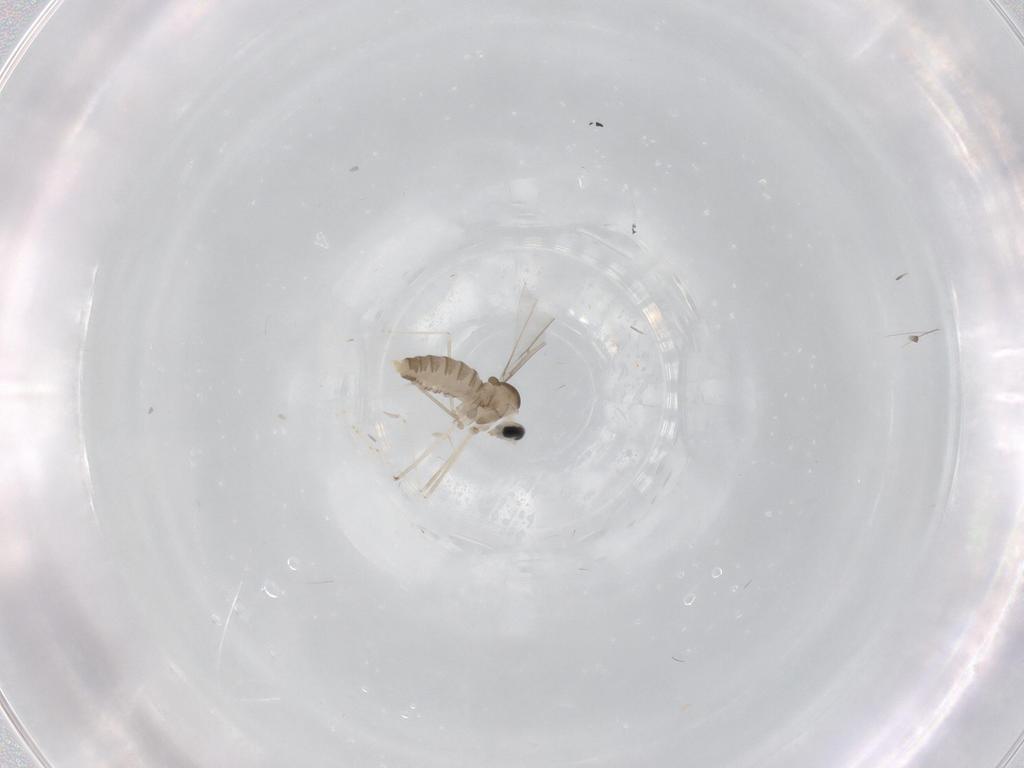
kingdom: Animalia
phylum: Arthropoda
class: Insecta
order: Diptera
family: Cecidomyiidae
